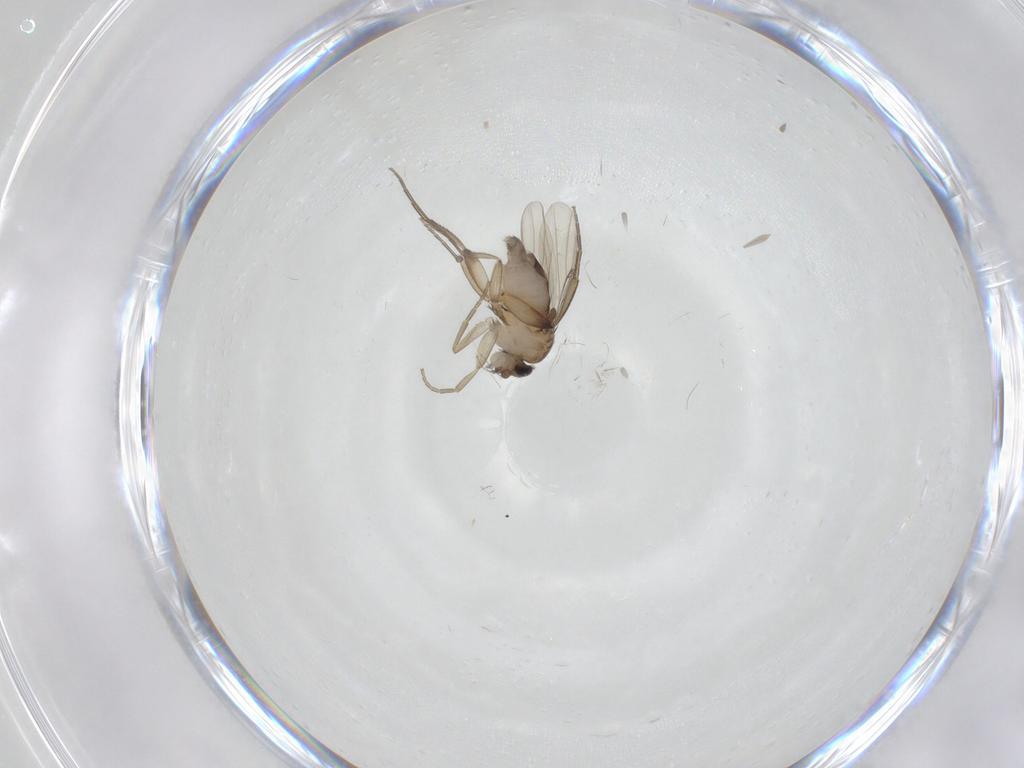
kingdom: Animalia
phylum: Arthropoda
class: Insecta
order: Diptera
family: Phoridae
